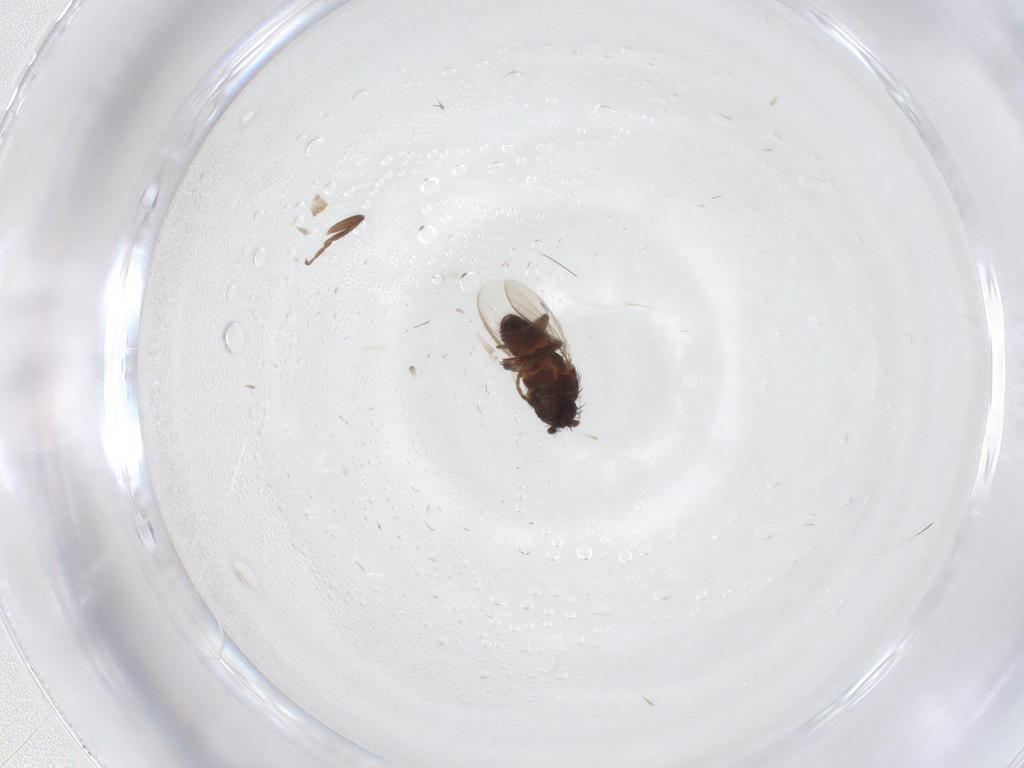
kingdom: Animalia
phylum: Arthropoda
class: Insecta
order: Diptera
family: Sphaeroceridae
